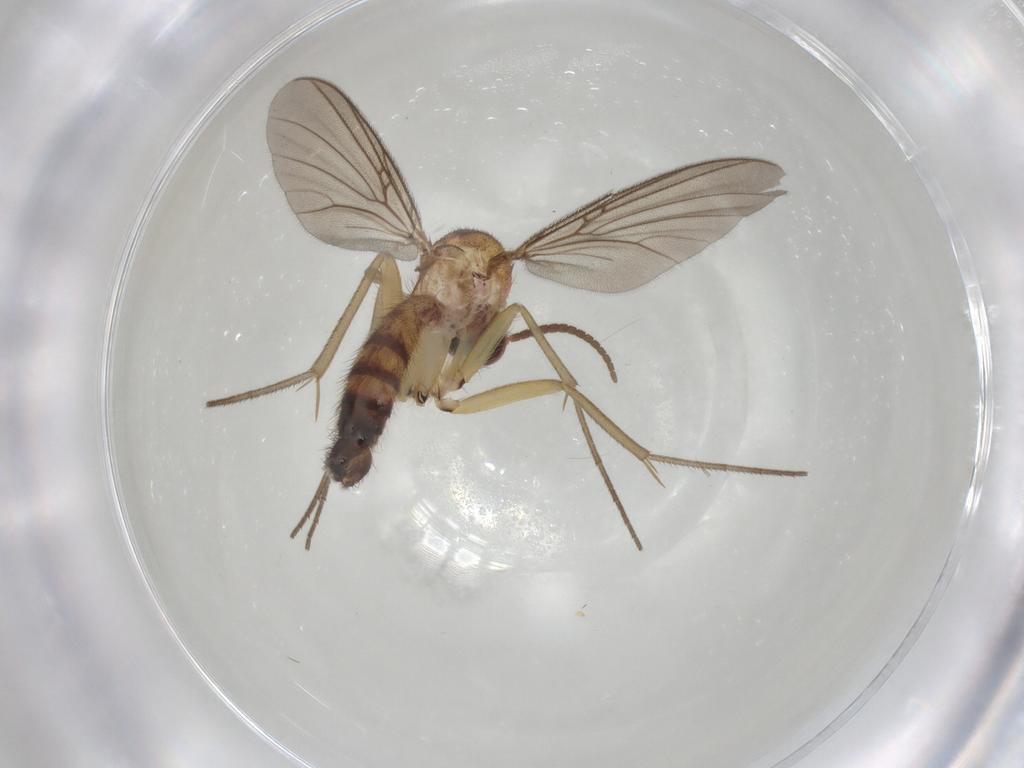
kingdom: Animalia
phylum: Arthropoda
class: Insecta
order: Diptera
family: Mycetophilidae
